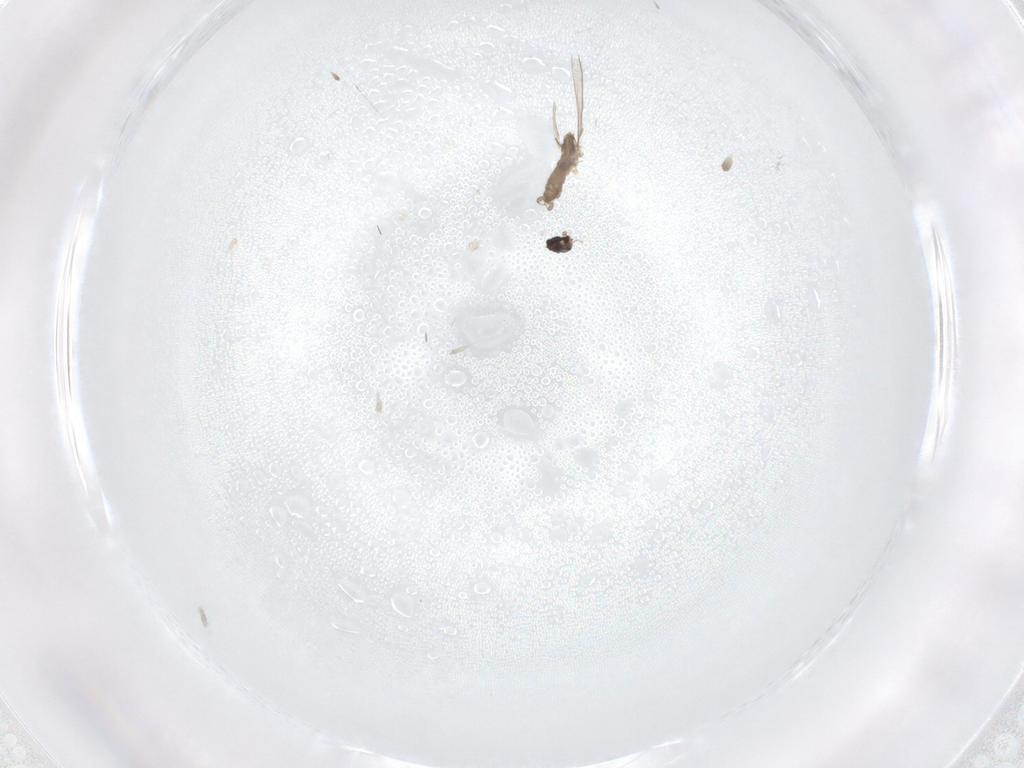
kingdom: Animalia
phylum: Arthropoda
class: Insecta
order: Diptera
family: Cecidomyiidae
